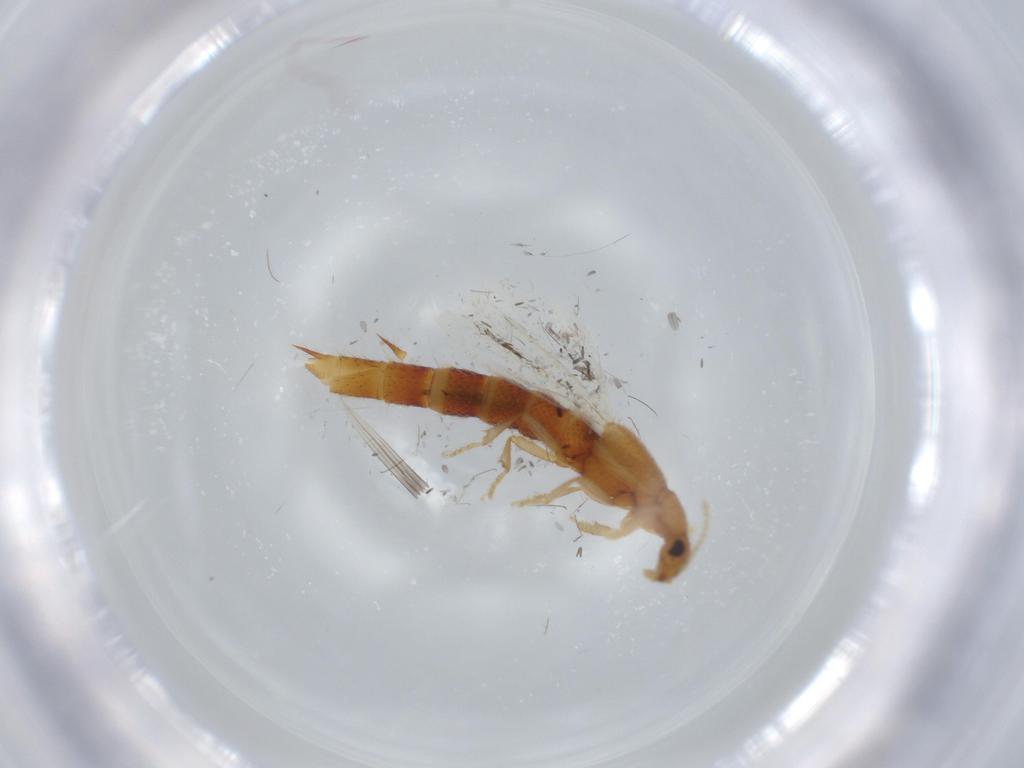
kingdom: Animalia
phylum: Arthropoda
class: Insecta
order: Coleoptera
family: Staphylinidae
